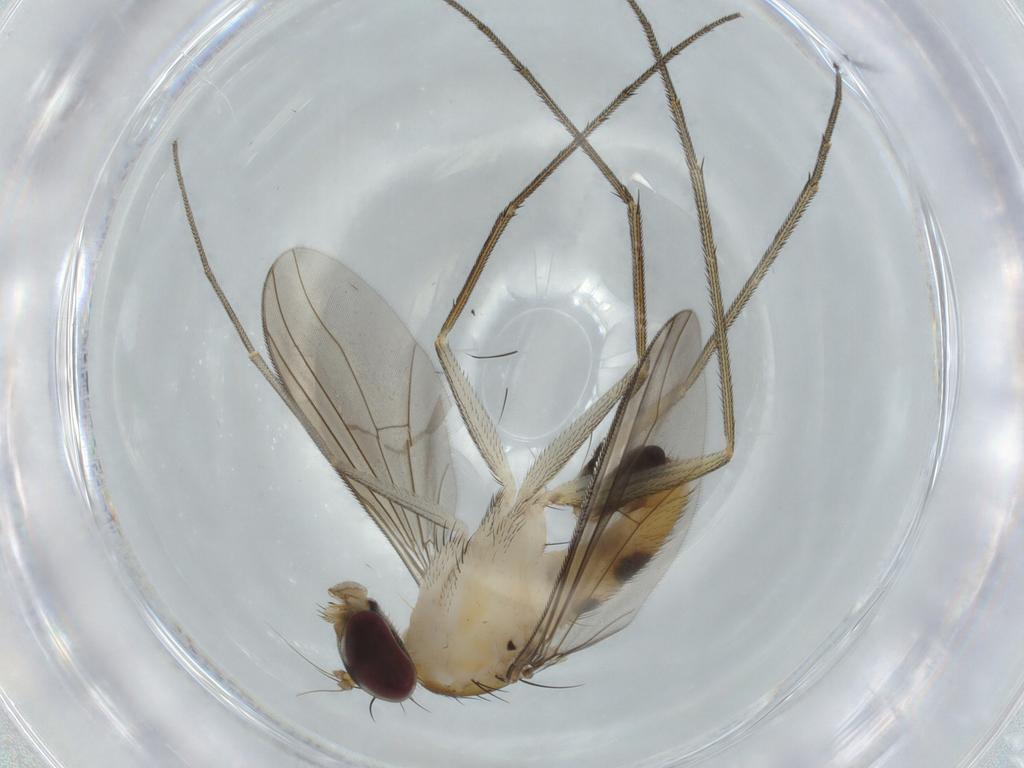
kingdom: Animalia
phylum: Arthropoda
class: Insecta
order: Diptera
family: Dolichopodidae
